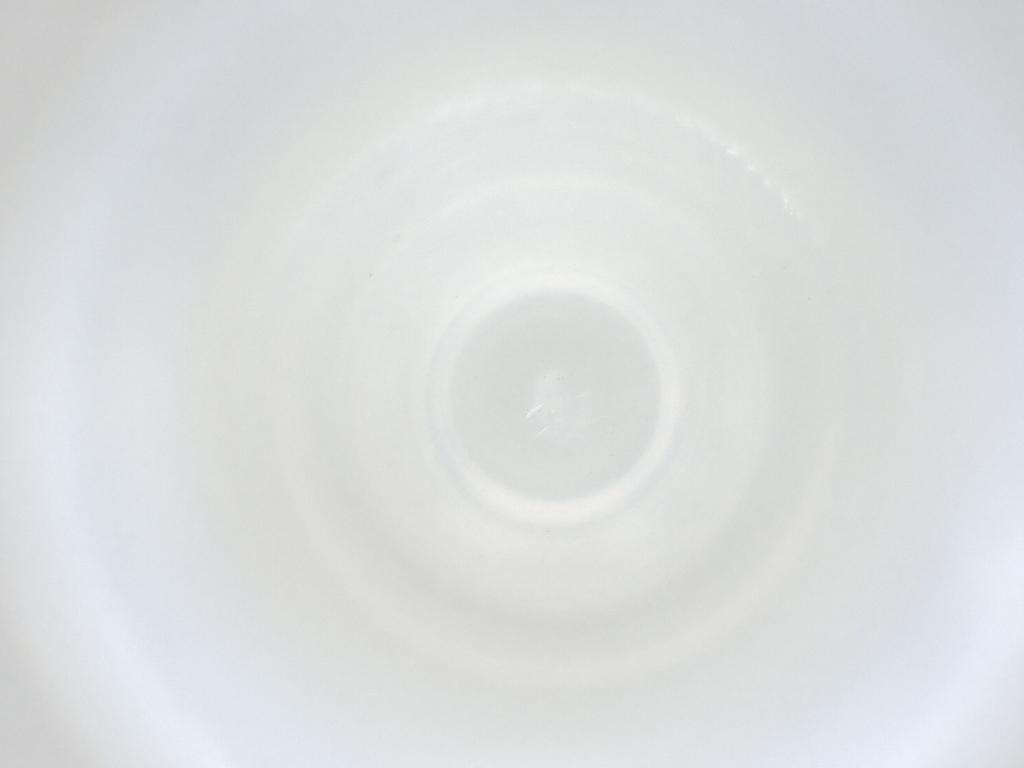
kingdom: Animalia
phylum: Arthropoda
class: Insecta
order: Diptera
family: Cecidomyiidae
